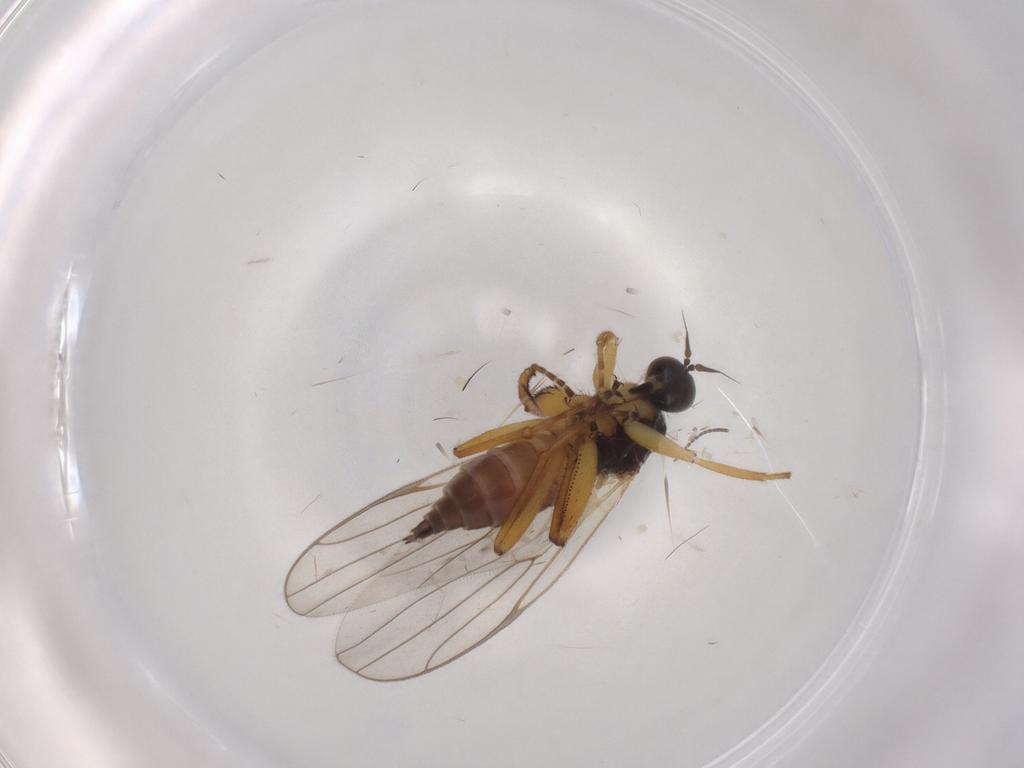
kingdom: Animalia
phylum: Arthropoda
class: Insecta
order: Diptera
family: Hybotidae
